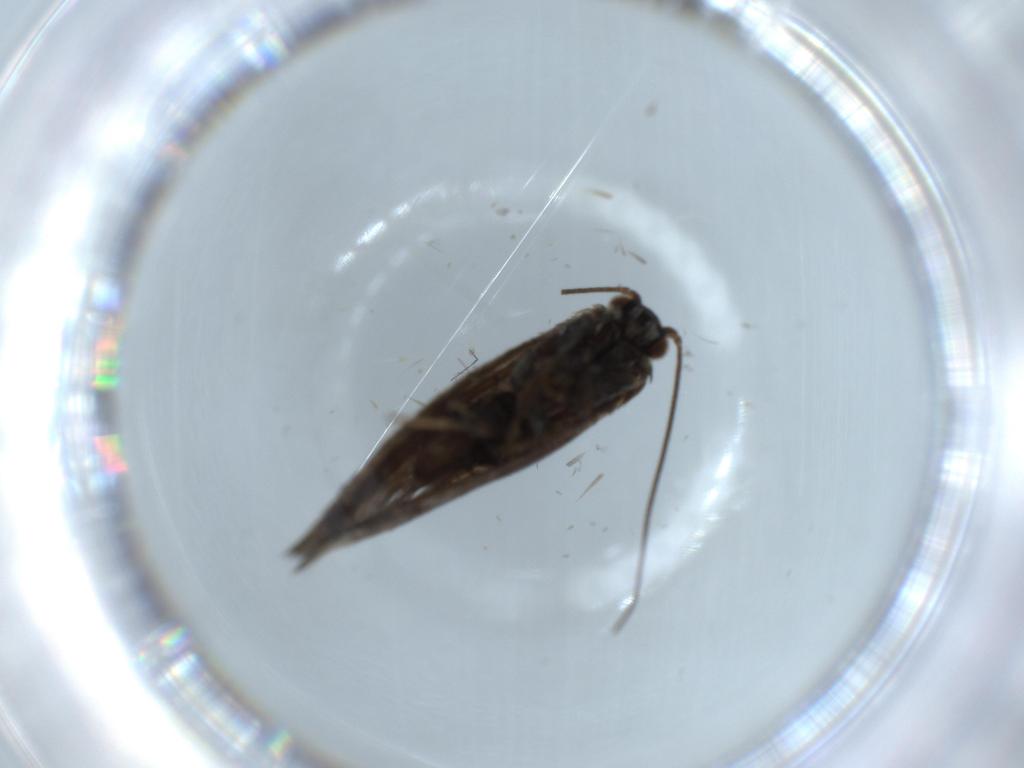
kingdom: Animalia
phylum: Arthropoda
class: Insecta
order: Lepidoptera
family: Incurvariidae
